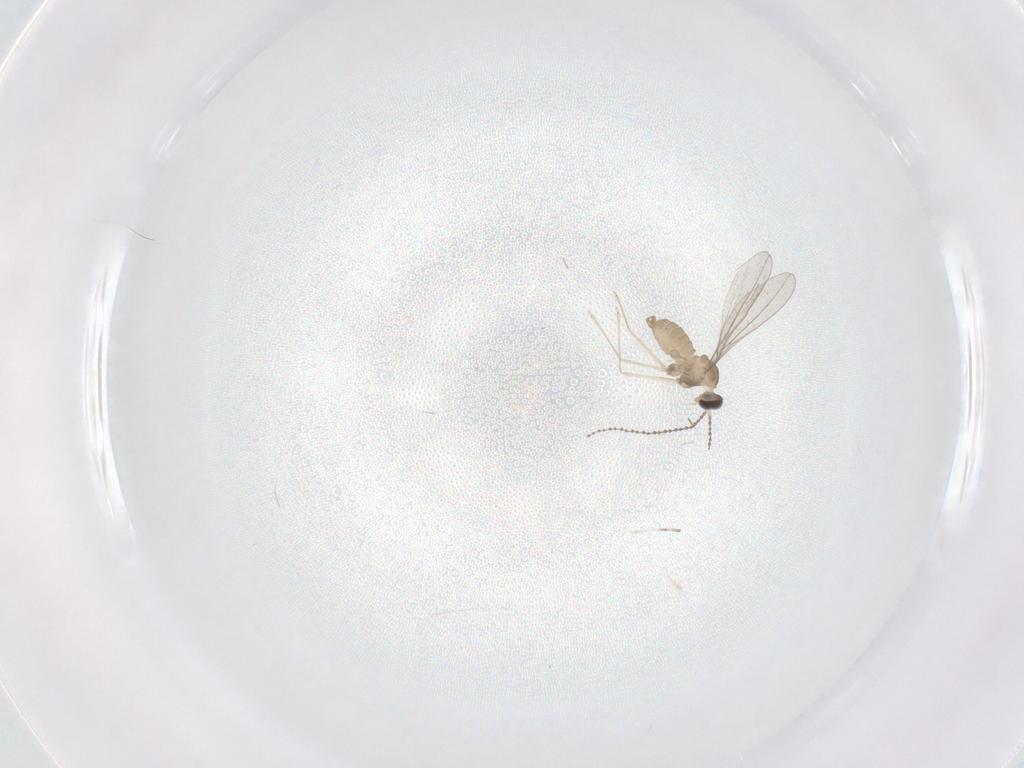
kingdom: Animalia
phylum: Arthropoda
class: Insecta
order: Diptera
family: Cecidomyiidae
